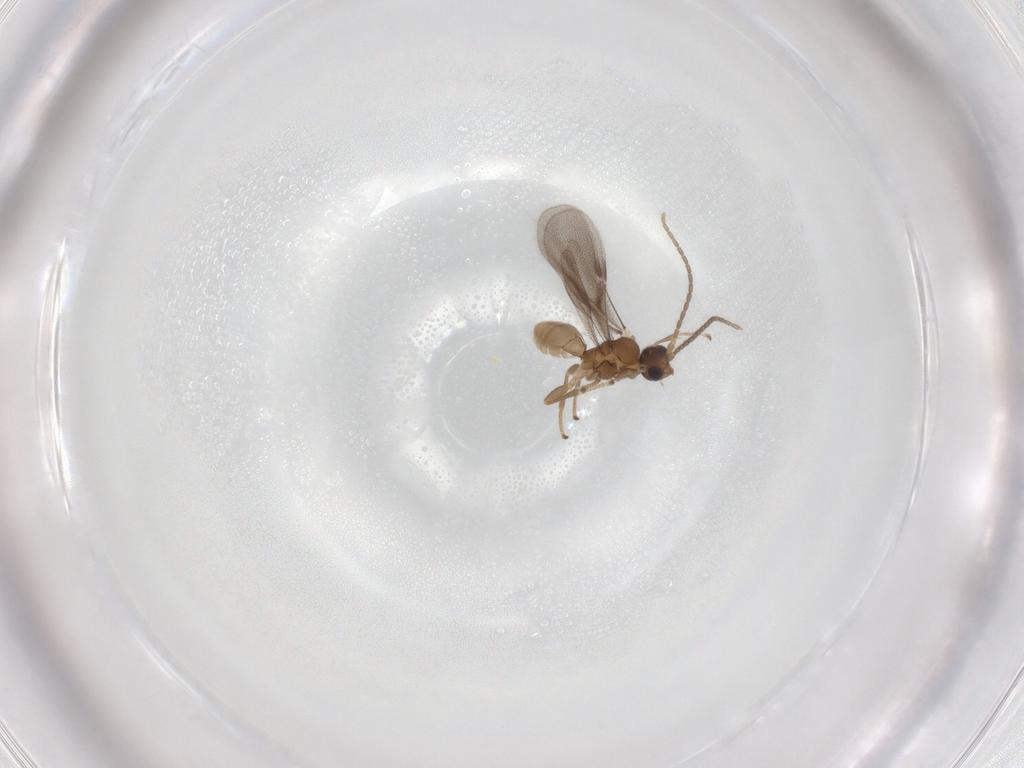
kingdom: Animalia
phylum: Arthropoda
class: Insecta
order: Hymenoptera
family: Ichneumonidae
